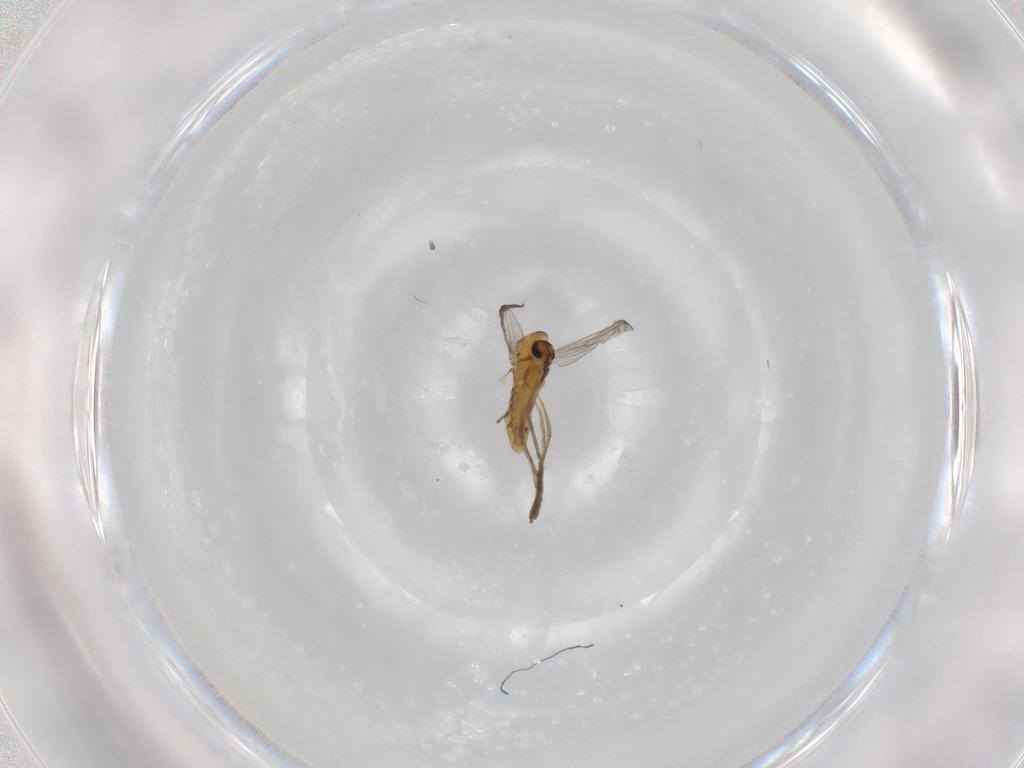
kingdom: Animalia
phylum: Arthropoda
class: Insecta
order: Diptera
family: Chironomidae
